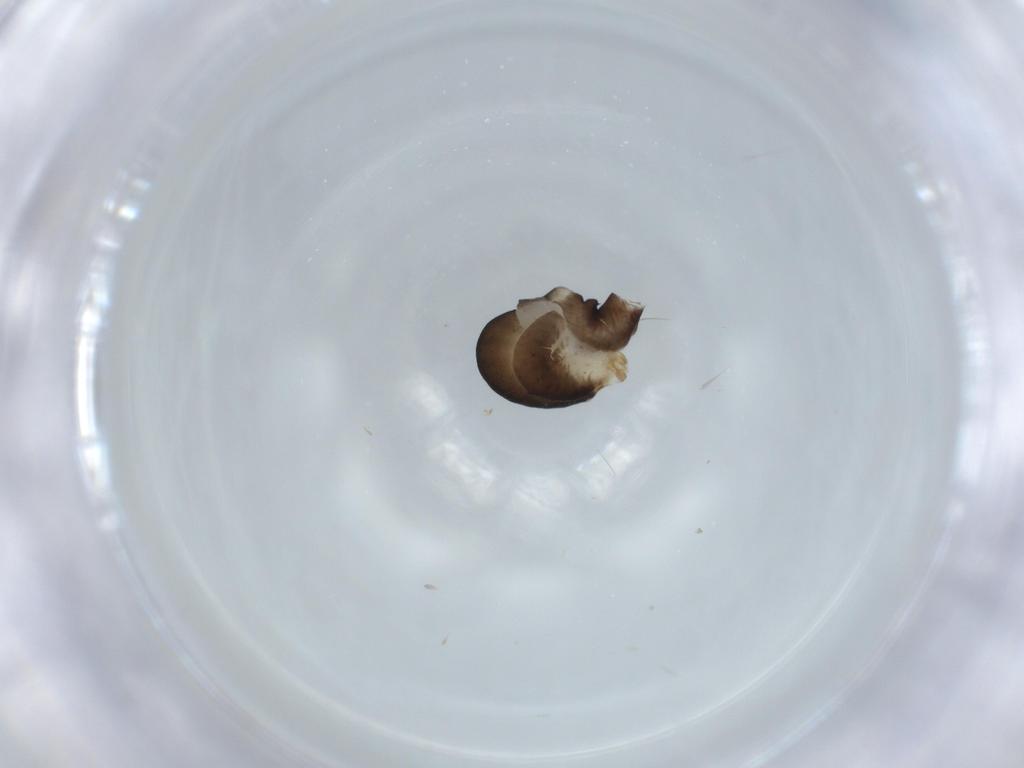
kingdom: Animalia
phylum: Arthropoda
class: Insecta
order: Hymenoptera
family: Dryinidae
